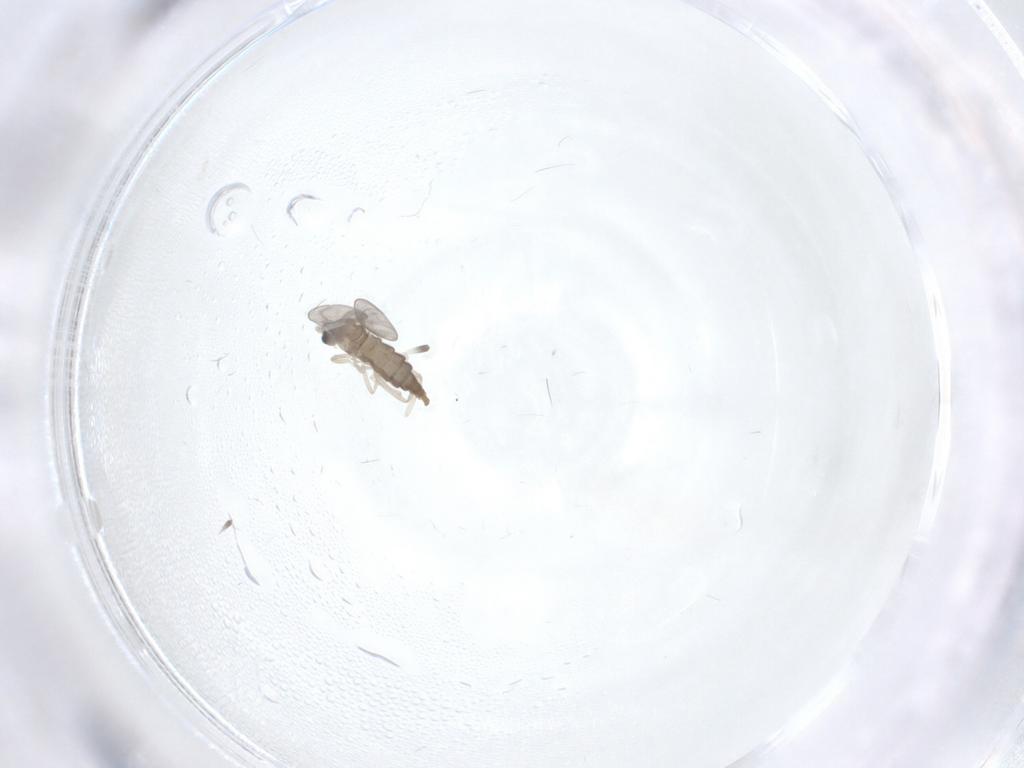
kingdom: Animalia
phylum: Arthropoda
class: Insecta
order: Diptera
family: Cecidomyiidae
